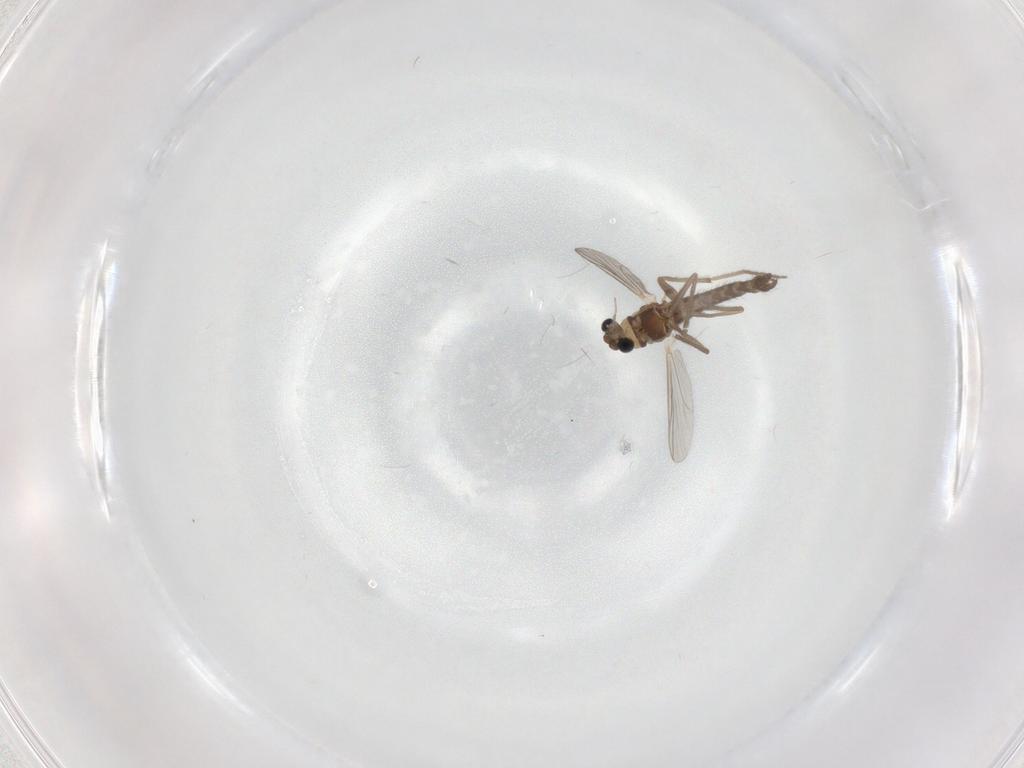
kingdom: Animalia
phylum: Arthropoda
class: Insecta
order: Diptera
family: Chironomidae
